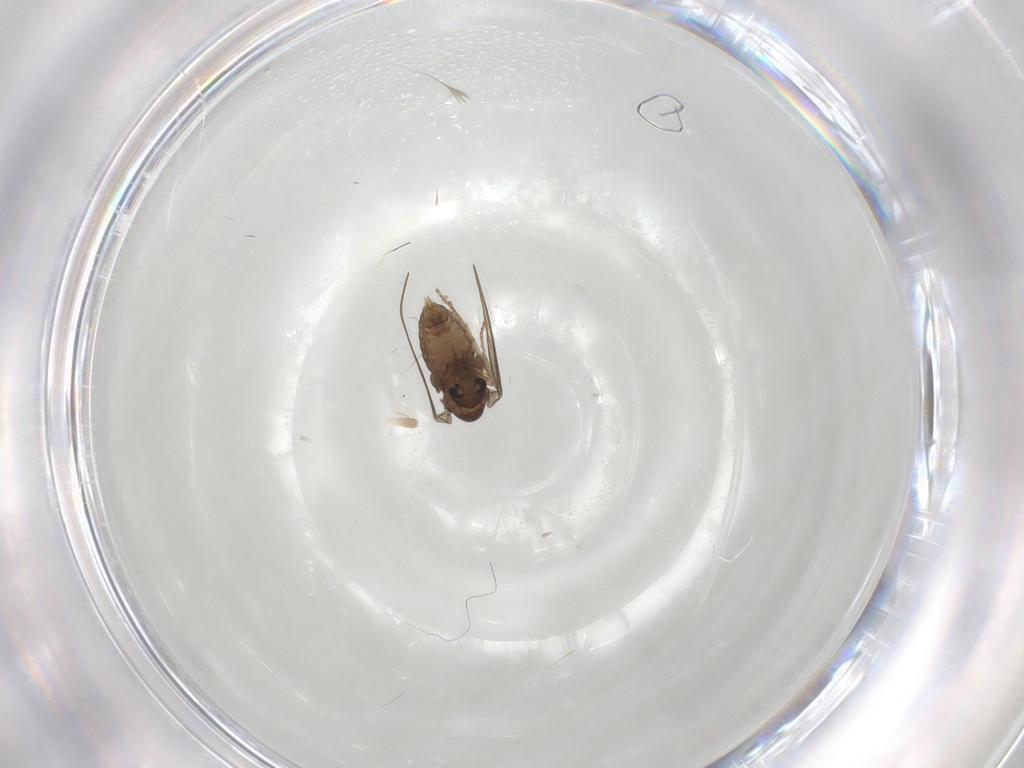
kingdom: Animalia
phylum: Arthropoda
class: Insecta
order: Diptera
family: Psychodidae
